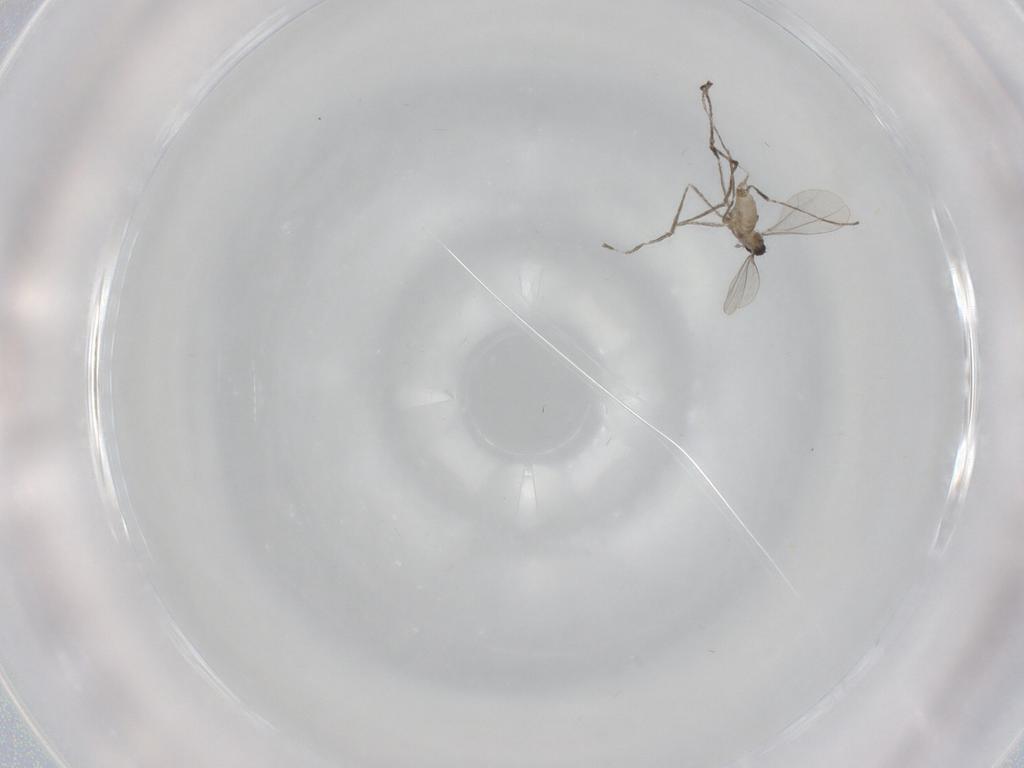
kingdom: Animalia
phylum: Arthropoda
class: Insecta
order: Diptera
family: Cecidomyiidae
